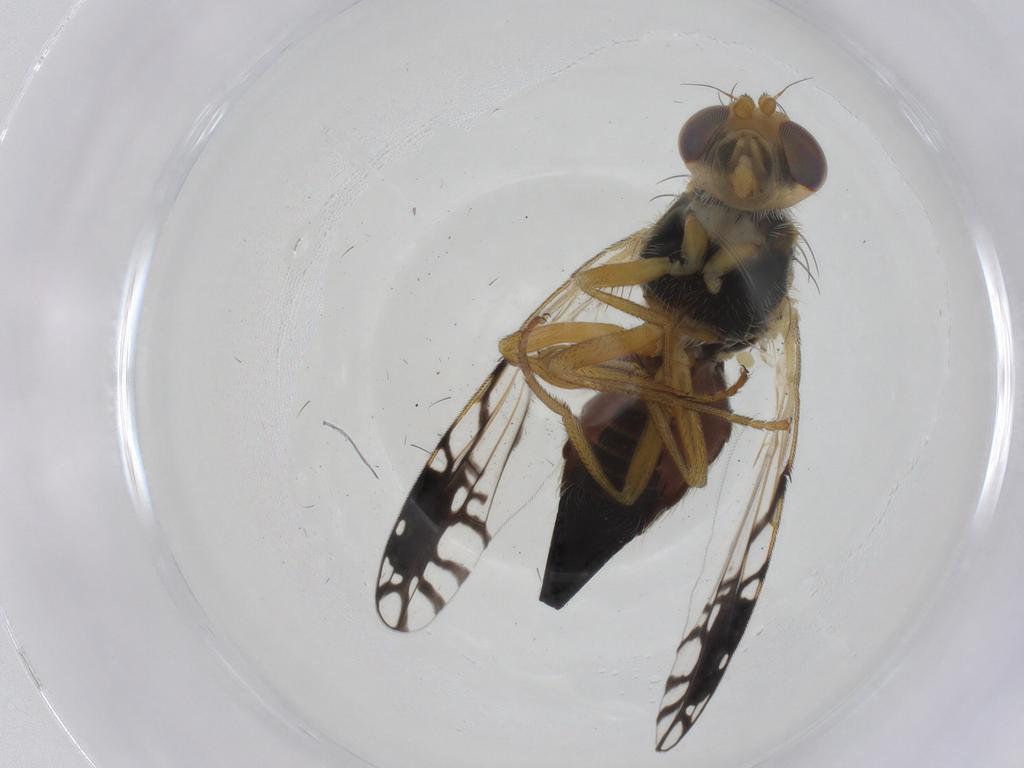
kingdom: Animalia
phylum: Arthropoda
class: Insecta
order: Diptera
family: Tephritidae
